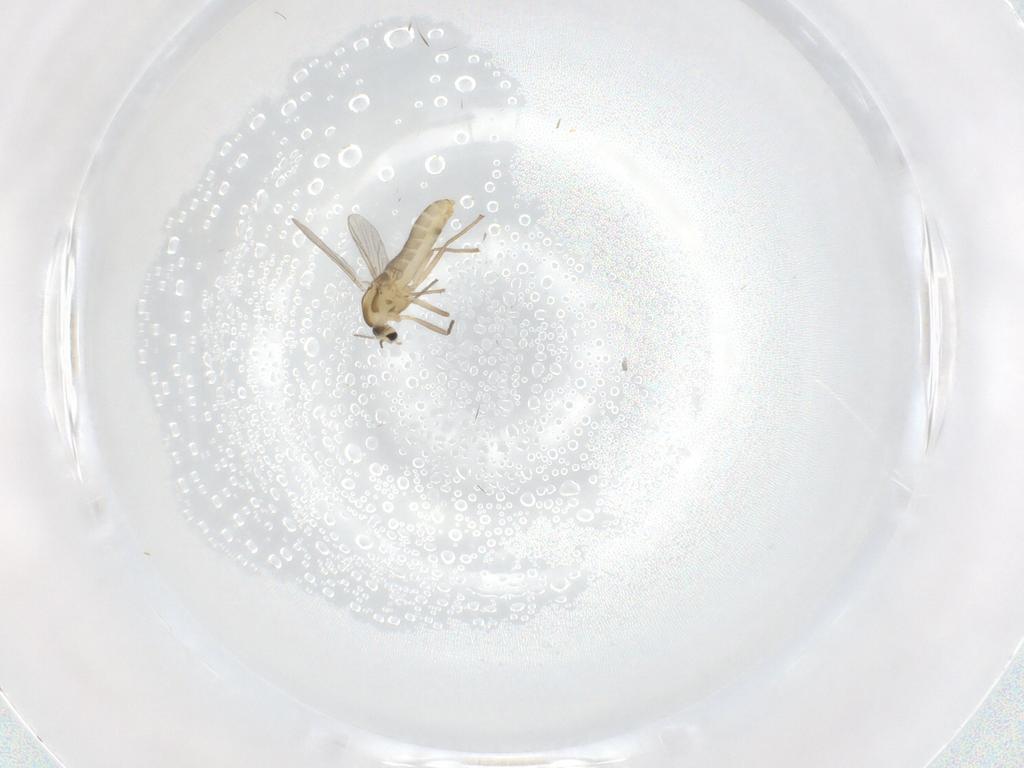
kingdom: Animalia
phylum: Arthropoda
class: Insecta
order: Diptera
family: Chironomidae
